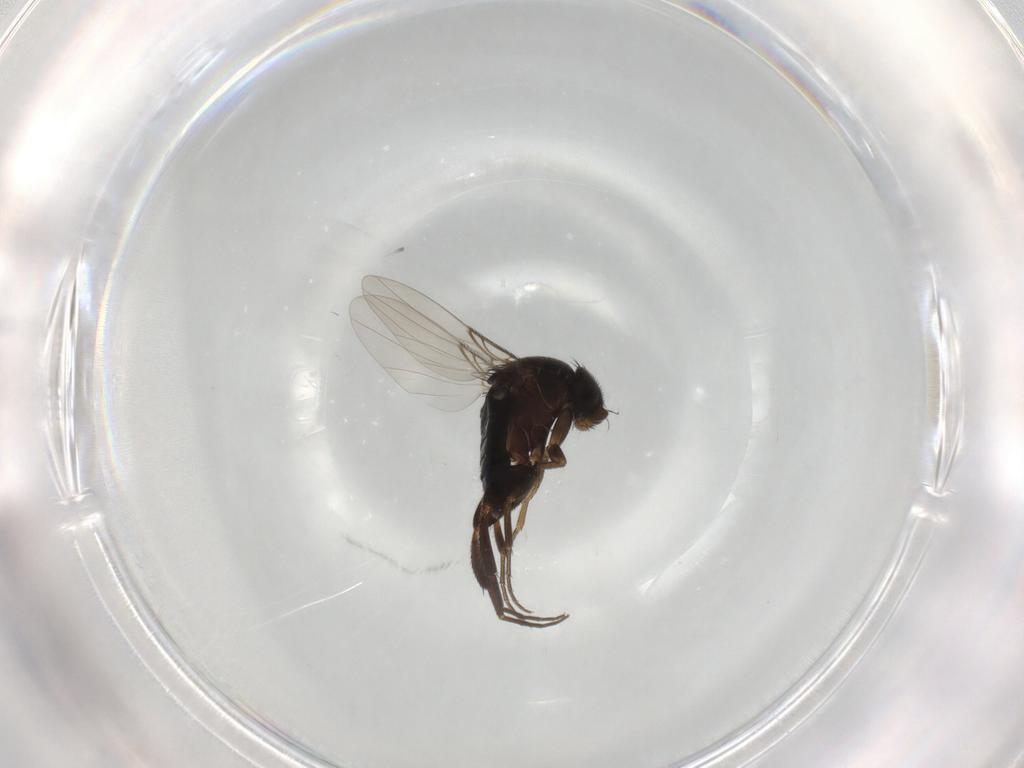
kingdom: Animalia
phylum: Arthropoda
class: Insecta
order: Diptera
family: Phoridae
